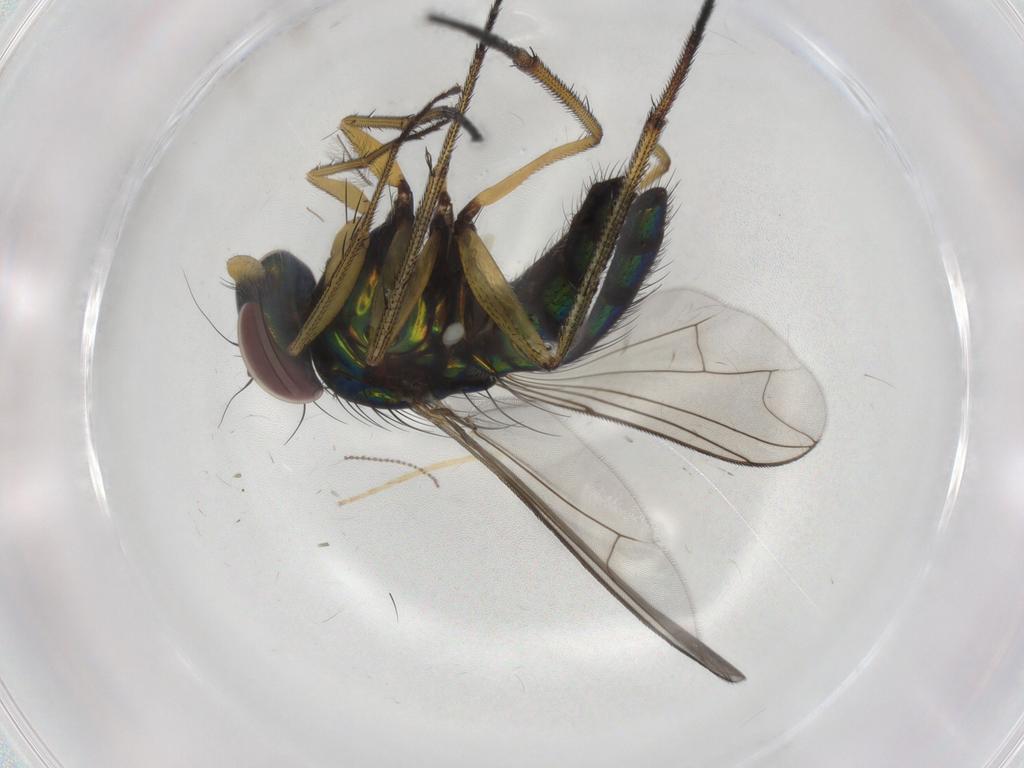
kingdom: Animalia
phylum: Arthropoda
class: Insecta
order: Diptera
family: Dolichopodidae
